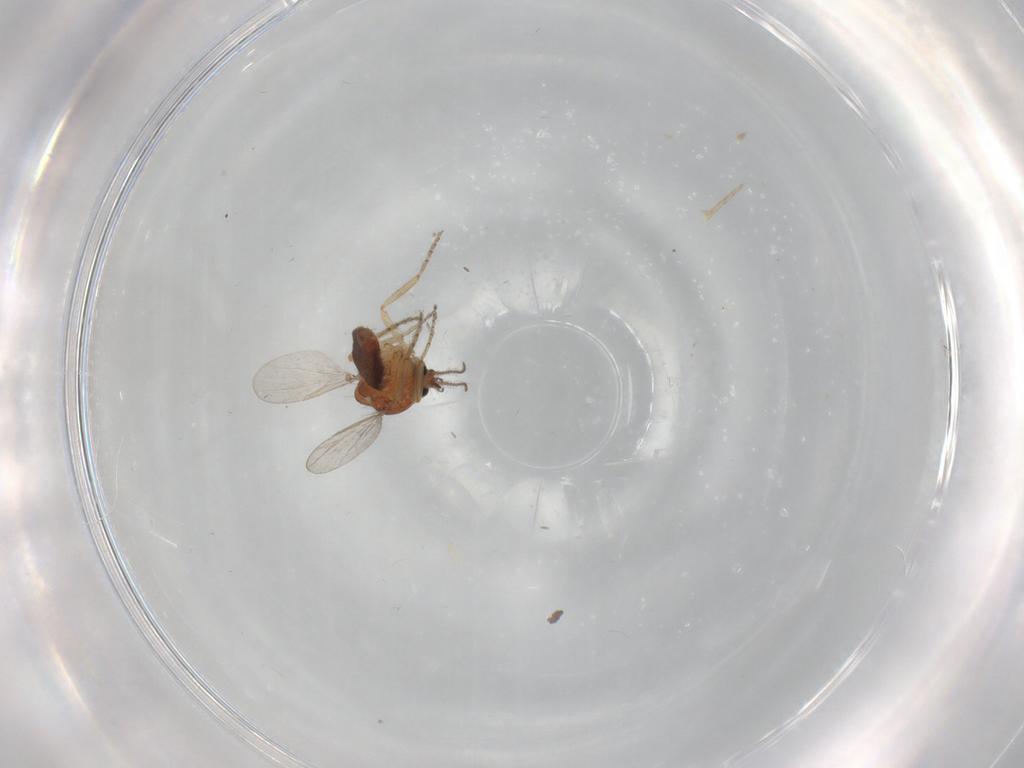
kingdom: Animalia
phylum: Arthropoda
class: Insecta
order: Diptera
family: Ceratopogonidae
